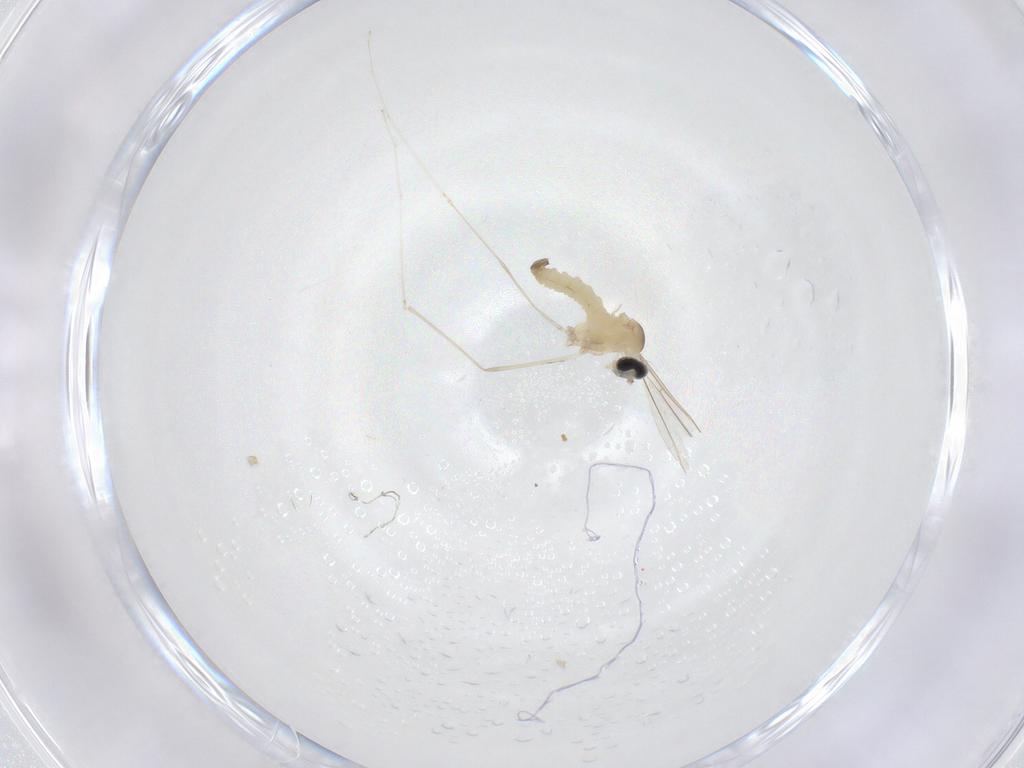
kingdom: Animalia
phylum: Arthropoda
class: Insecta
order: Diptera
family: Cecidomyiidae
